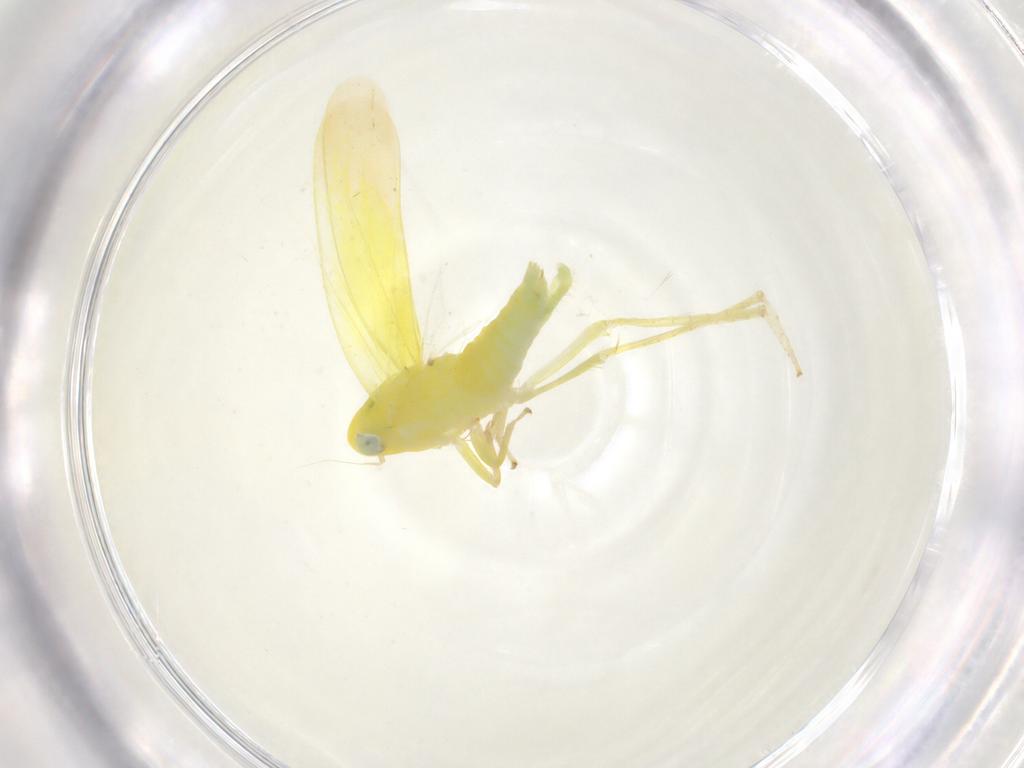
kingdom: Animalia
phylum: Arthropoda
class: Insecta
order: Hemiptera
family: Cicadellidae
